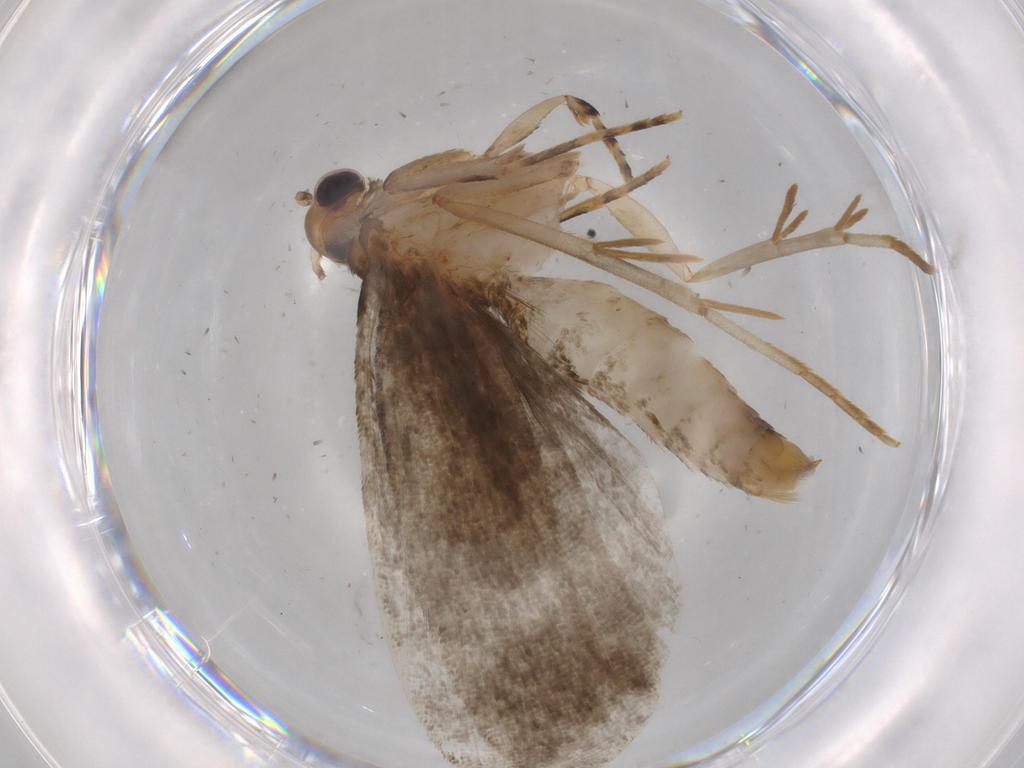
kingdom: Animalia
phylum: Arthropoda
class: Insecta
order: Lepidoptera
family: Tineidae
